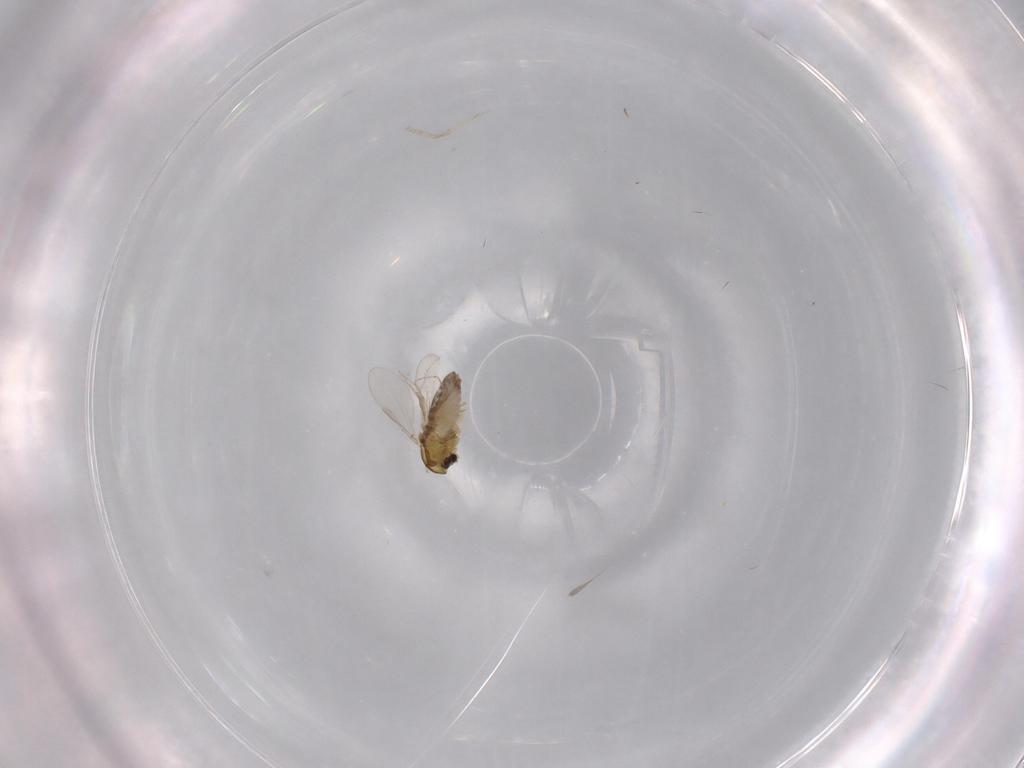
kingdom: Animalia
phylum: Arthropoda
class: Insecta
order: Diptera
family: Chironomidae
